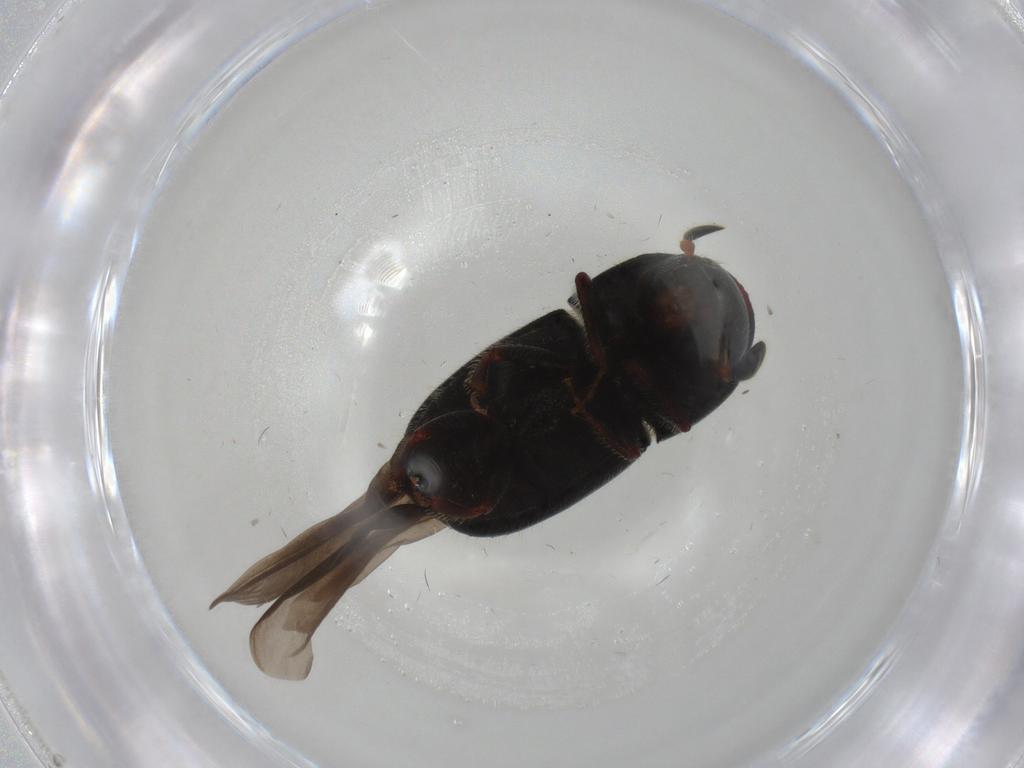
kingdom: Animalia
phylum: Arthropoda
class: Insecta
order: Coleoptera
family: Curculionidae
